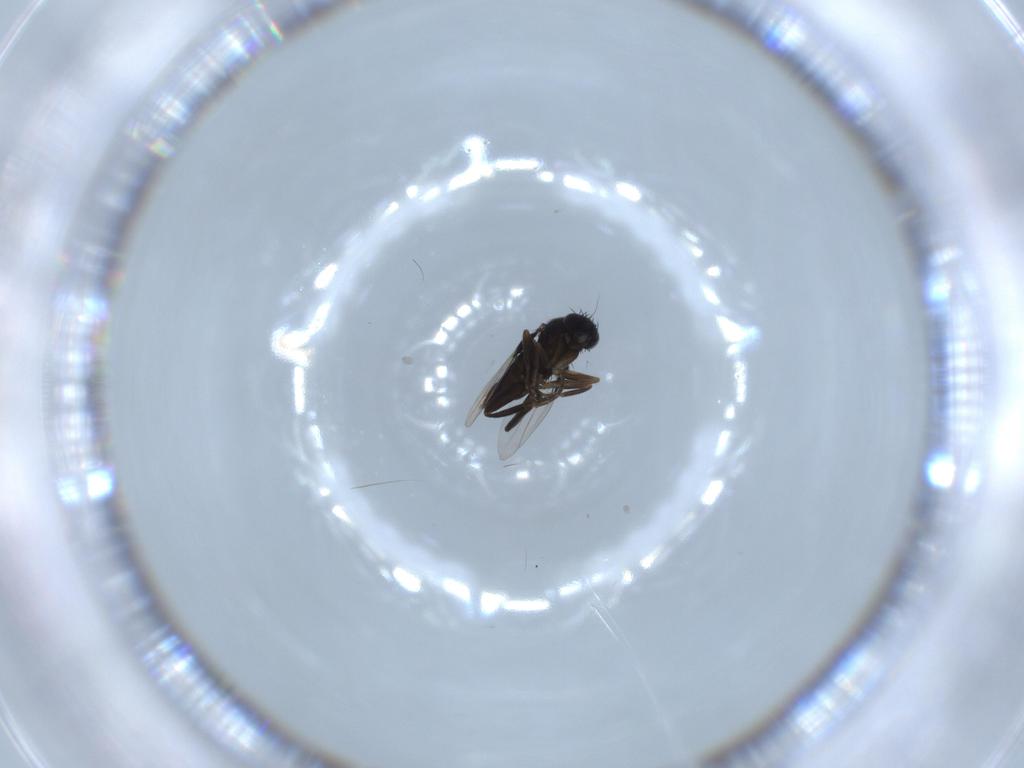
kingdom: Animalia
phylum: Arthropoda
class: Insecta
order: Diptera
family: Phoridae
